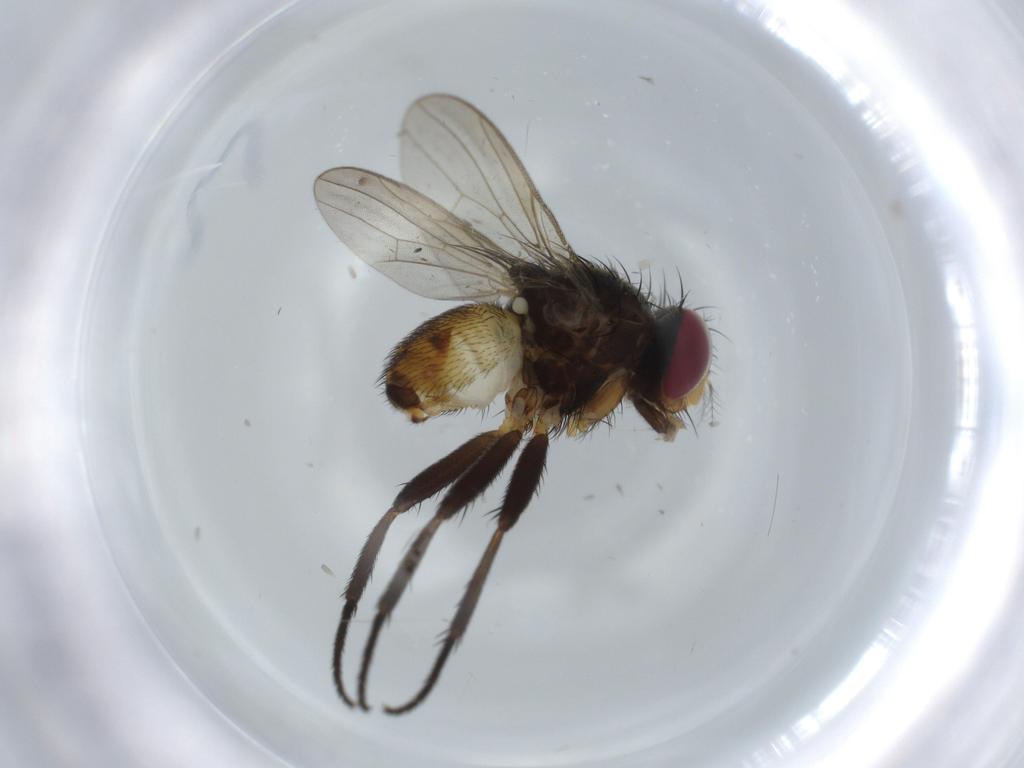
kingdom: Animalia
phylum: Arthropoda
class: Insecta
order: Diptera
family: Anthomyiidae
